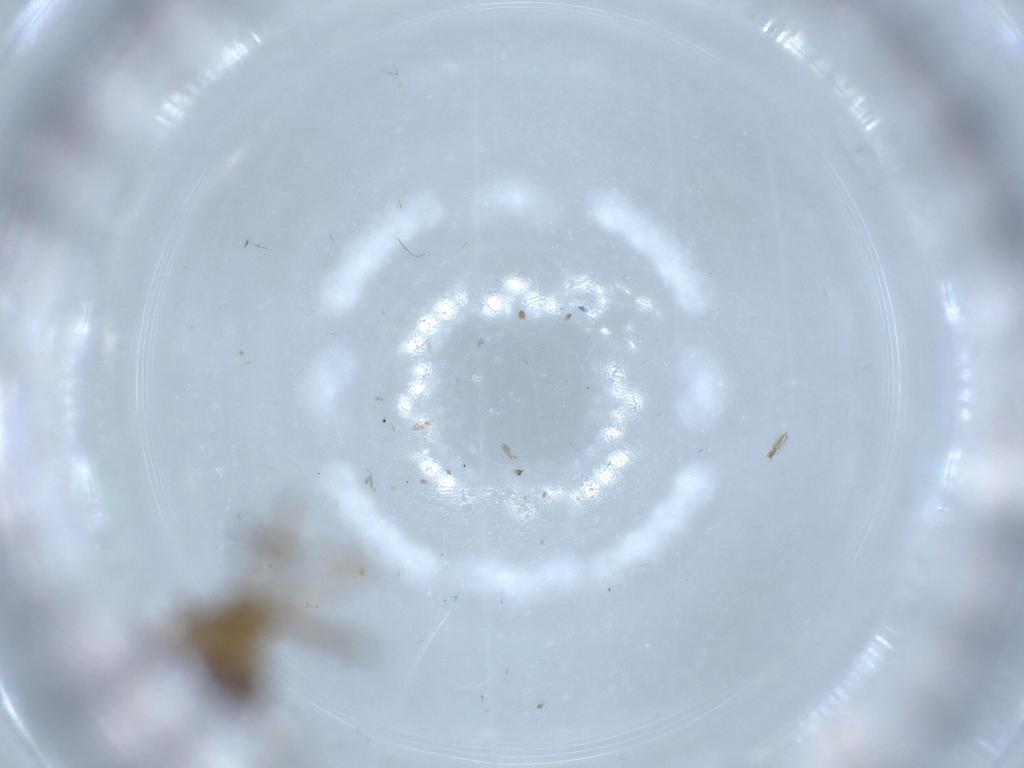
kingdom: Animalia
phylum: Arthropoda
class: Insecta
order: Diptera
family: Cecidomyiidae
